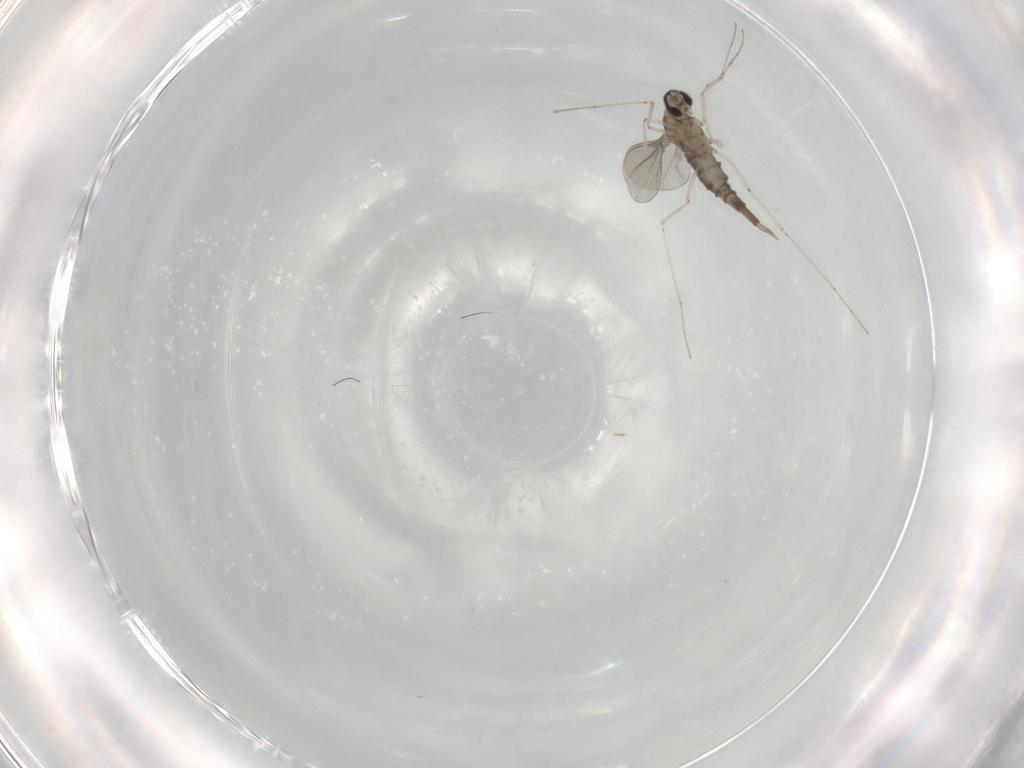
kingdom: Animalia
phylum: Arthropoda
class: Insecta
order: Diptera
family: Cecidomyiidae
